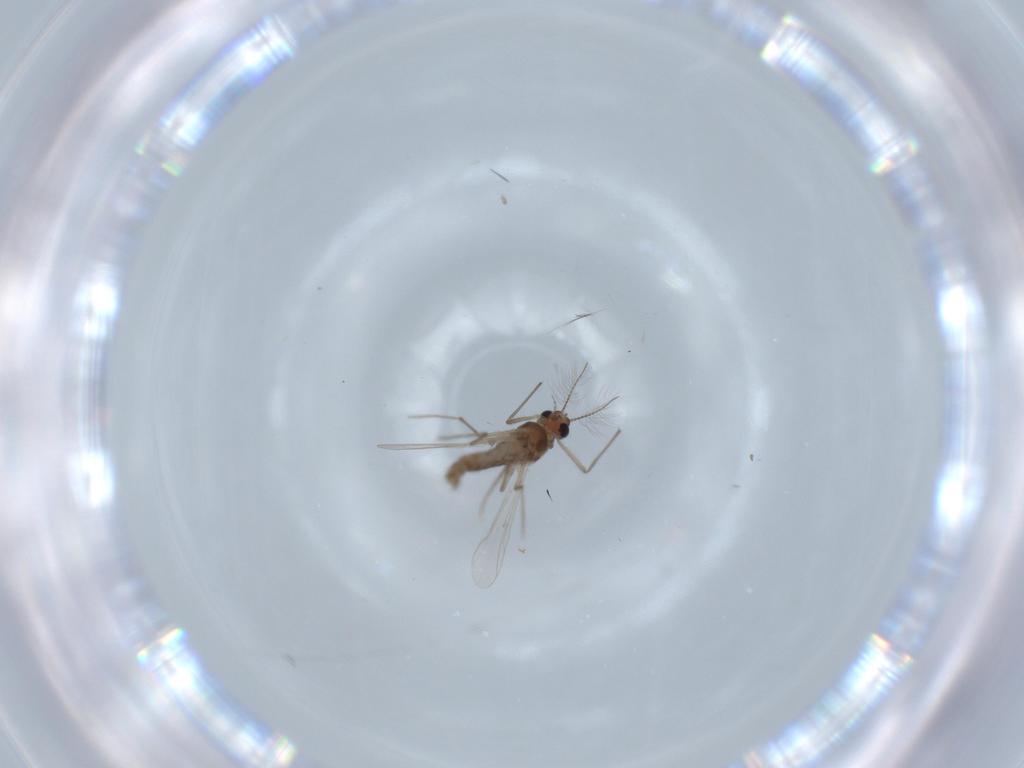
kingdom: Animalia
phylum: Arthropoda
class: Insecta
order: Diptera
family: Chironomidae
